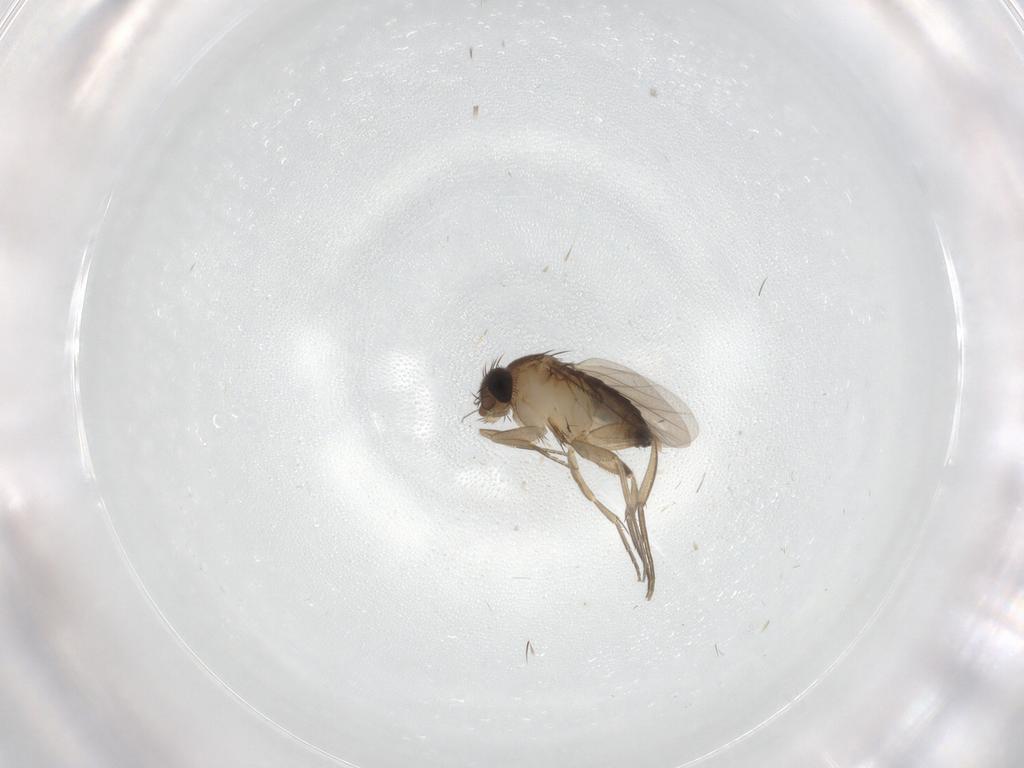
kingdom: Animalia
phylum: Arthropoda
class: Insecta
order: Diptera
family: Phoridae
